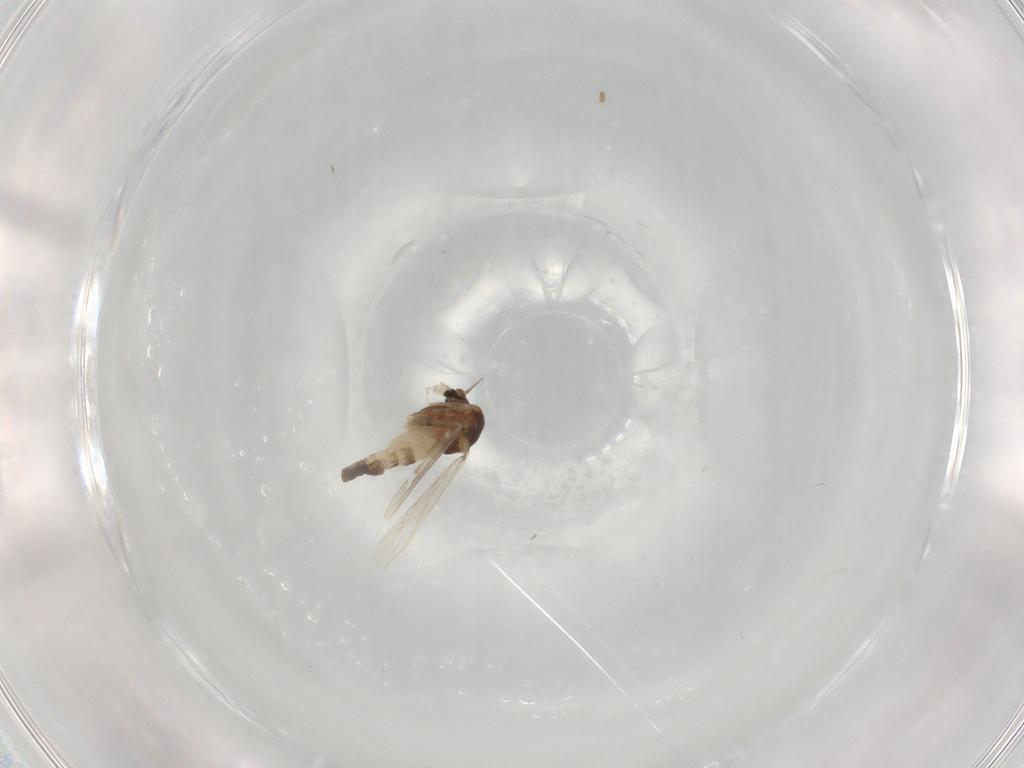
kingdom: Animalia
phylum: Arthropoda
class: Insecta
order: Diptera
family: Chironomidae
